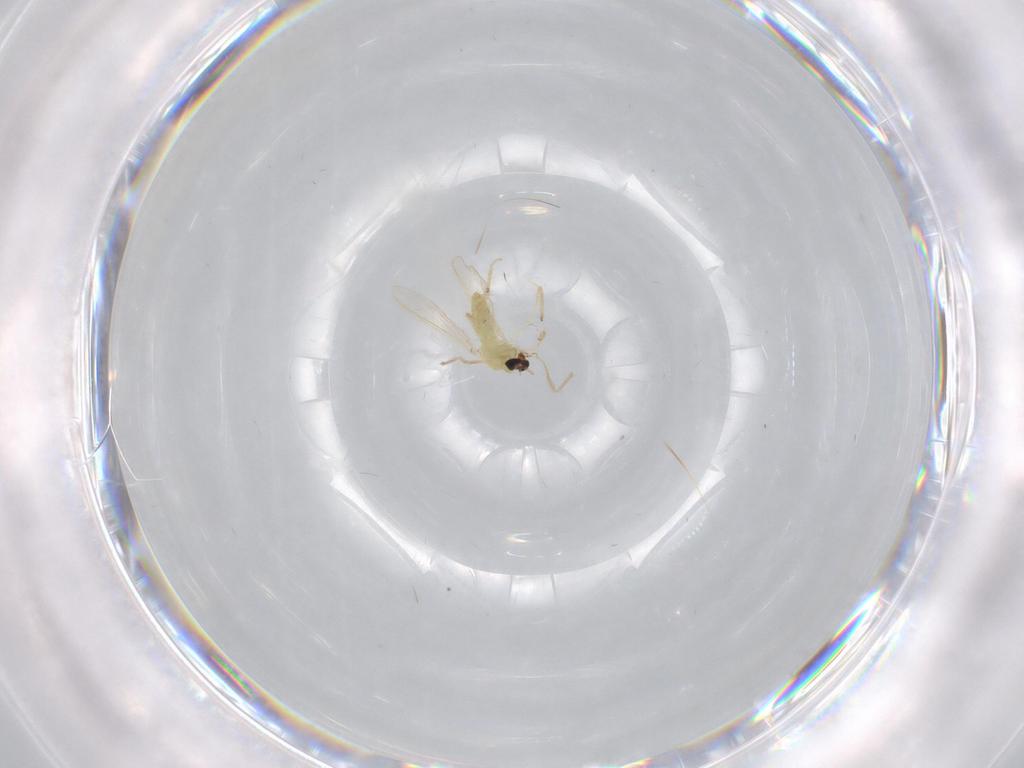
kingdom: Animalia
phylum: Arthropoda
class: Insecta
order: Diptera
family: Chironomidae
